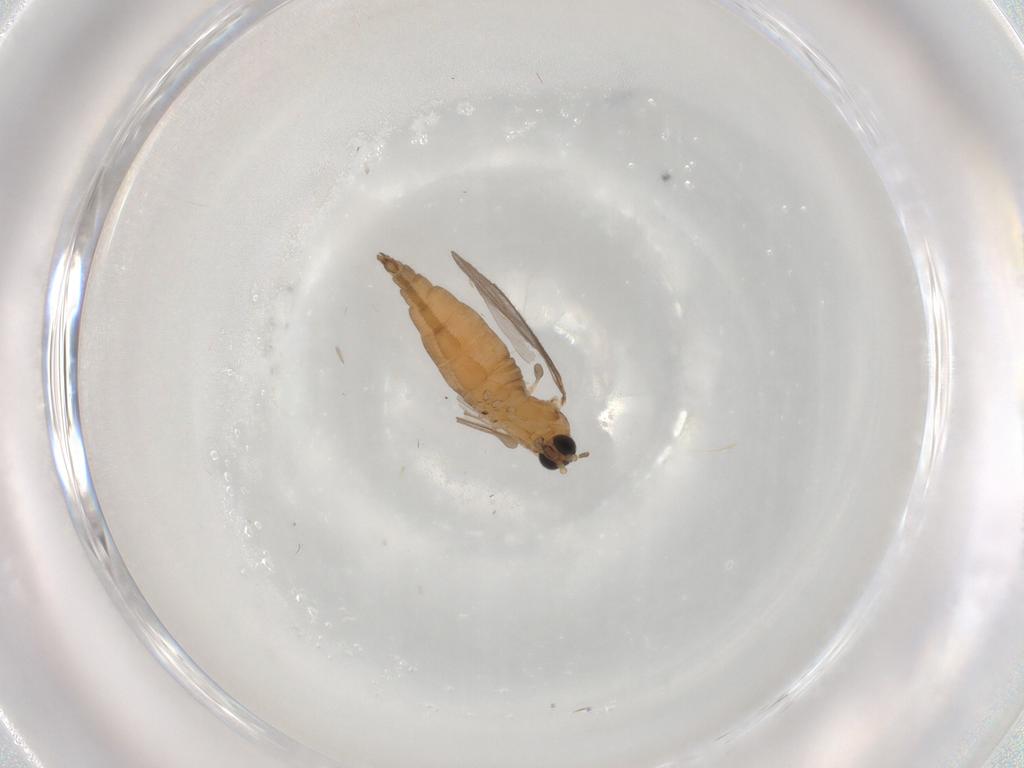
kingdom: Animalia
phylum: Arthropoda
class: Insecta
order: Diptera
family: Sciaridae
